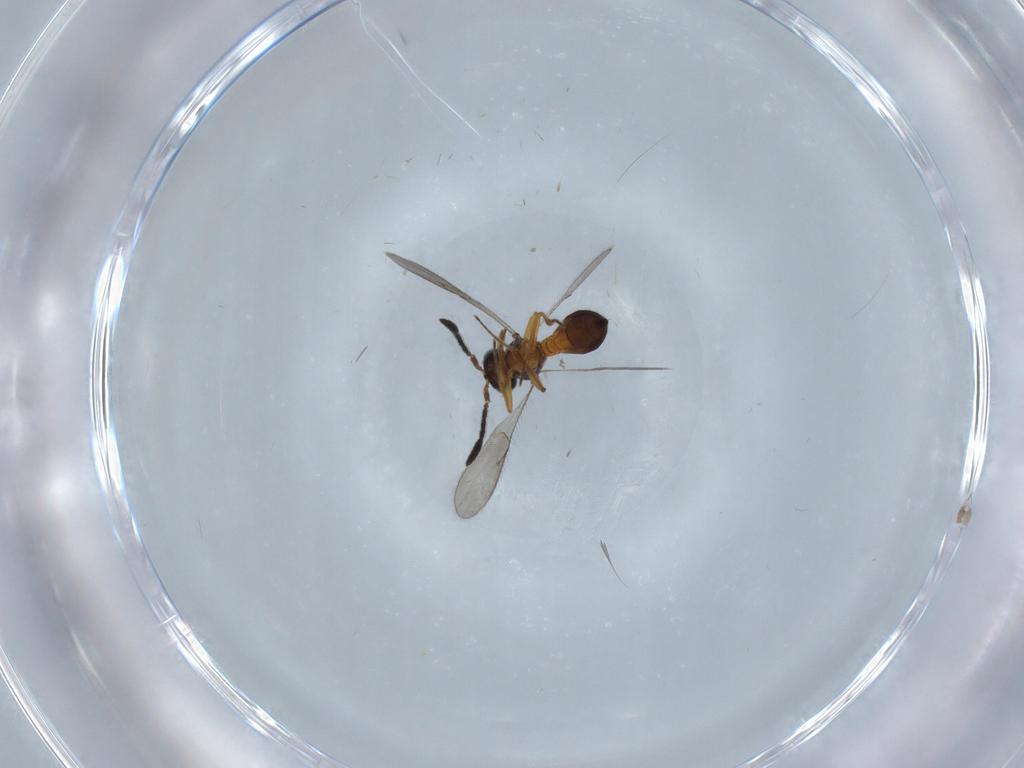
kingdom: Animalia
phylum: Arthropoda
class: Insecta
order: Hymenoptera
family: Scelionidae
